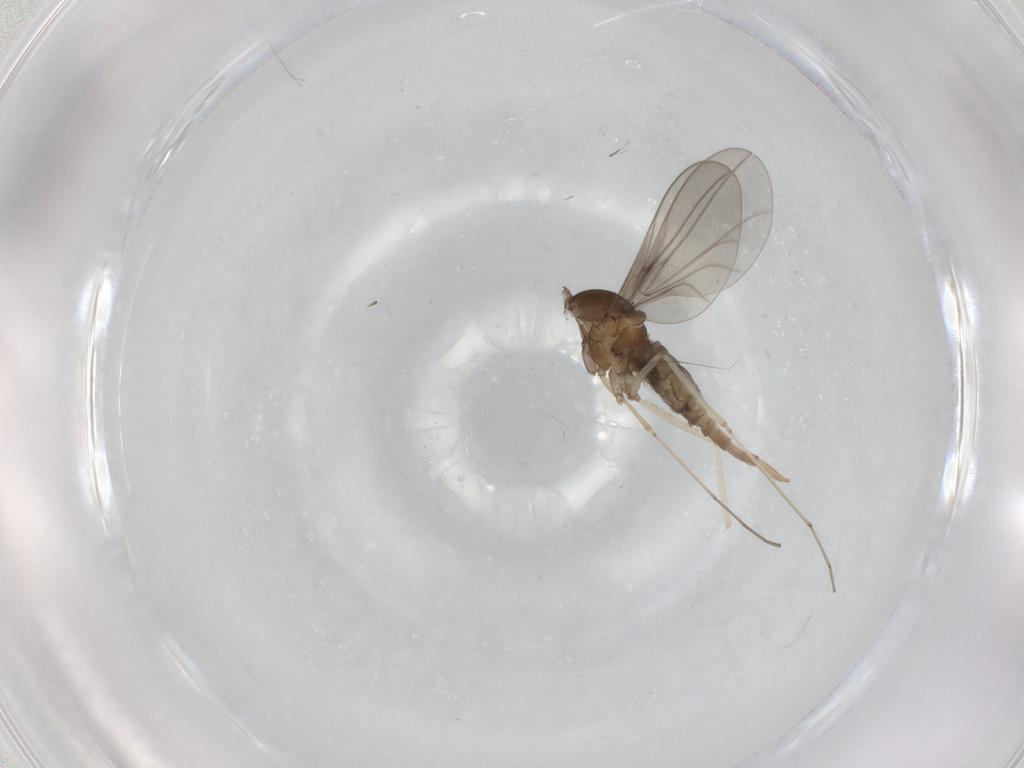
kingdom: Animalia
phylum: Arthropoda
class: Insecta
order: Diptera
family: Cecidomyiidae
